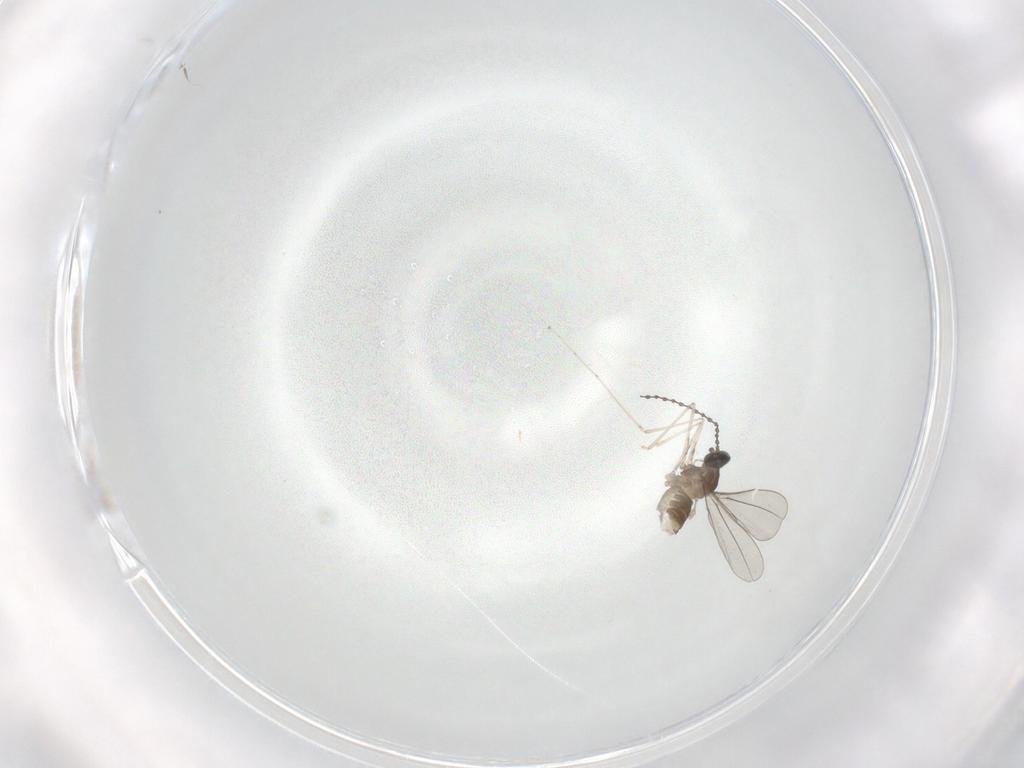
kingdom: Animalia
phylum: Arthropoda
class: Insecta
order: Diptera
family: Cecidomyiidae
